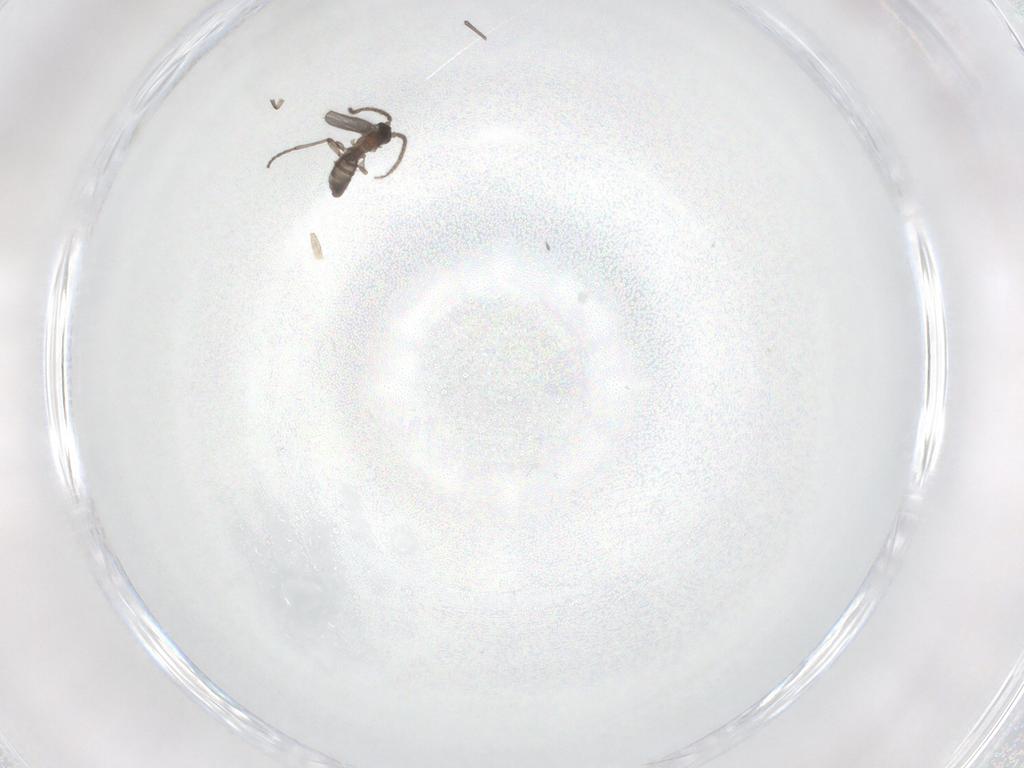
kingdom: Animalia
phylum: Arthropoda
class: Insecta
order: Diptera
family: Sciaridae
